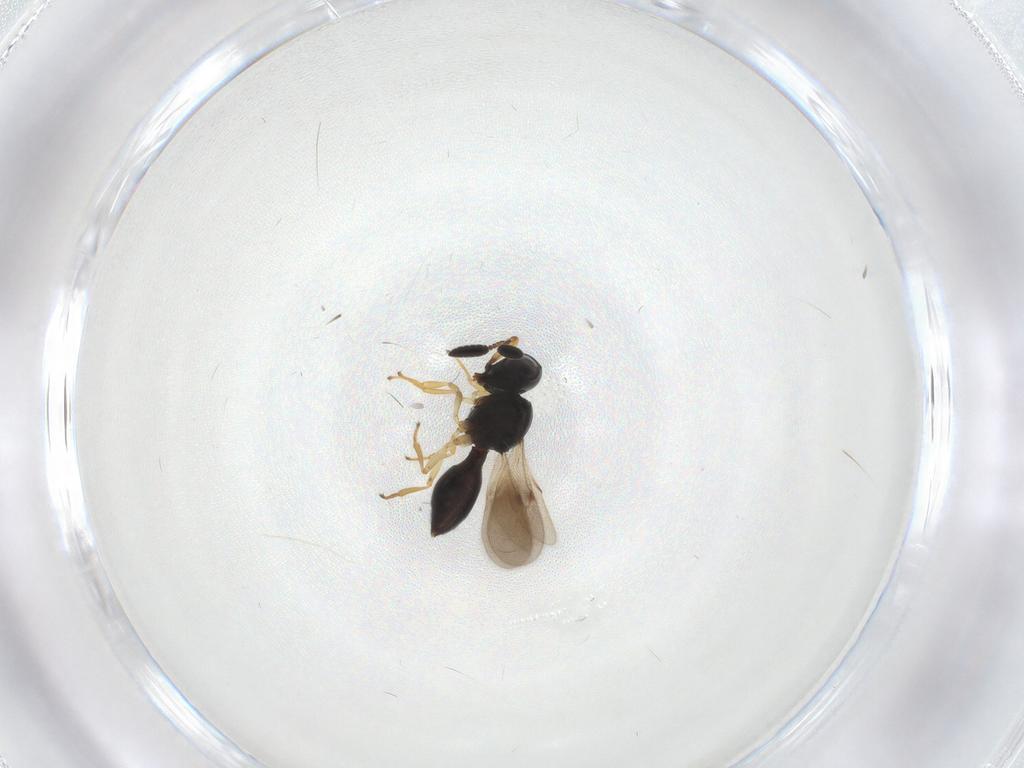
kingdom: Animalia
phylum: Arthropoda
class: Insecta
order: Hymenoptera
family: Scelionidae
